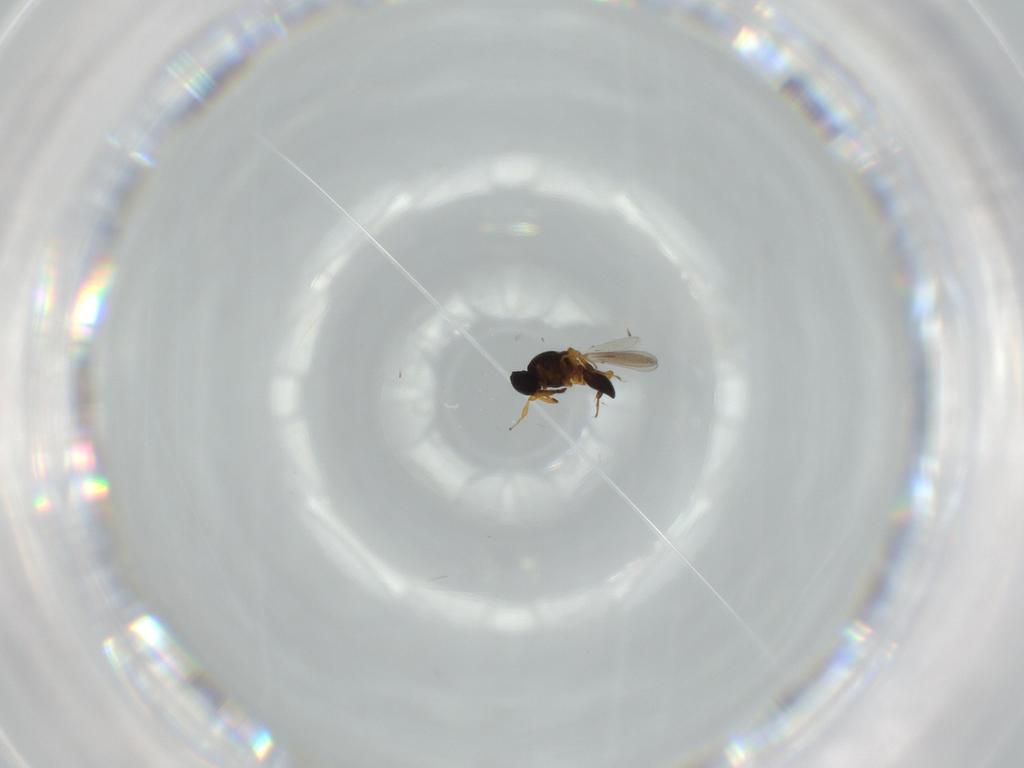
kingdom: Animalia
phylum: Arthropoda
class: Insecta
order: Hymenoptera
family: Platygastridae
